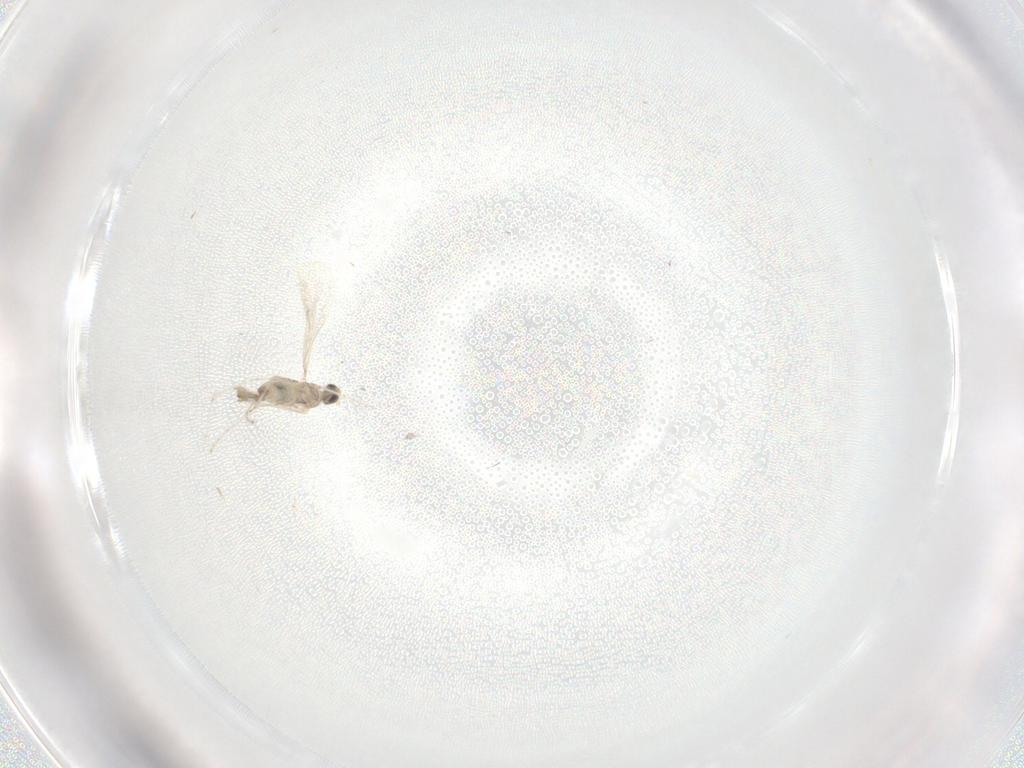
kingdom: Animalia
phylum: Arthropoda
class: Insecta
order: Diptera
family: Cecidomyiidae
